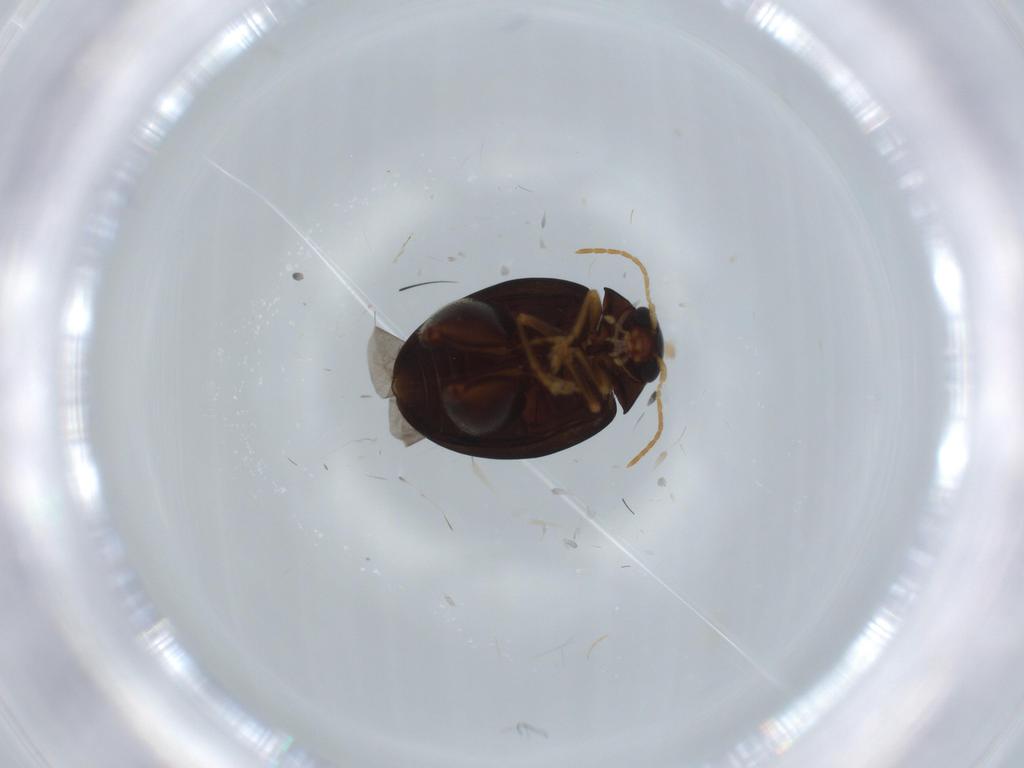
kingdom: Animalia
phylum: Arthropoda
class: Insecta
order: Coleoptera
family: Chrysomelidae
